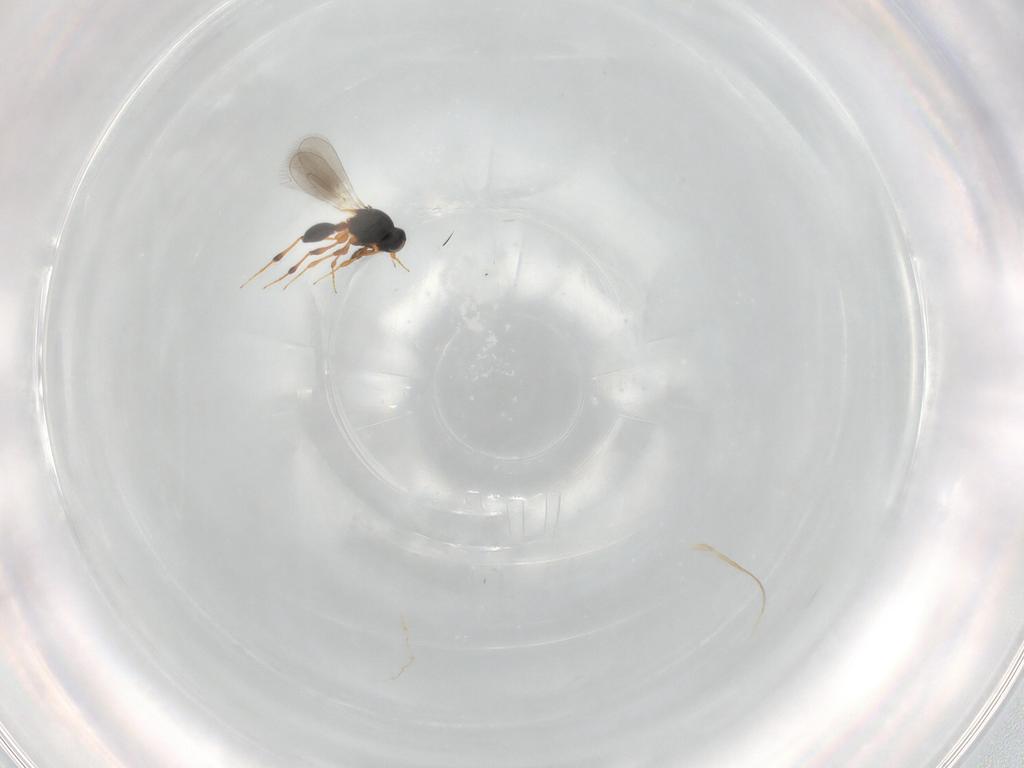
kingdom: Animalia
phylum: Arthropoda
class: Insecta
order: Hymenoptera
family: Platygastridae
